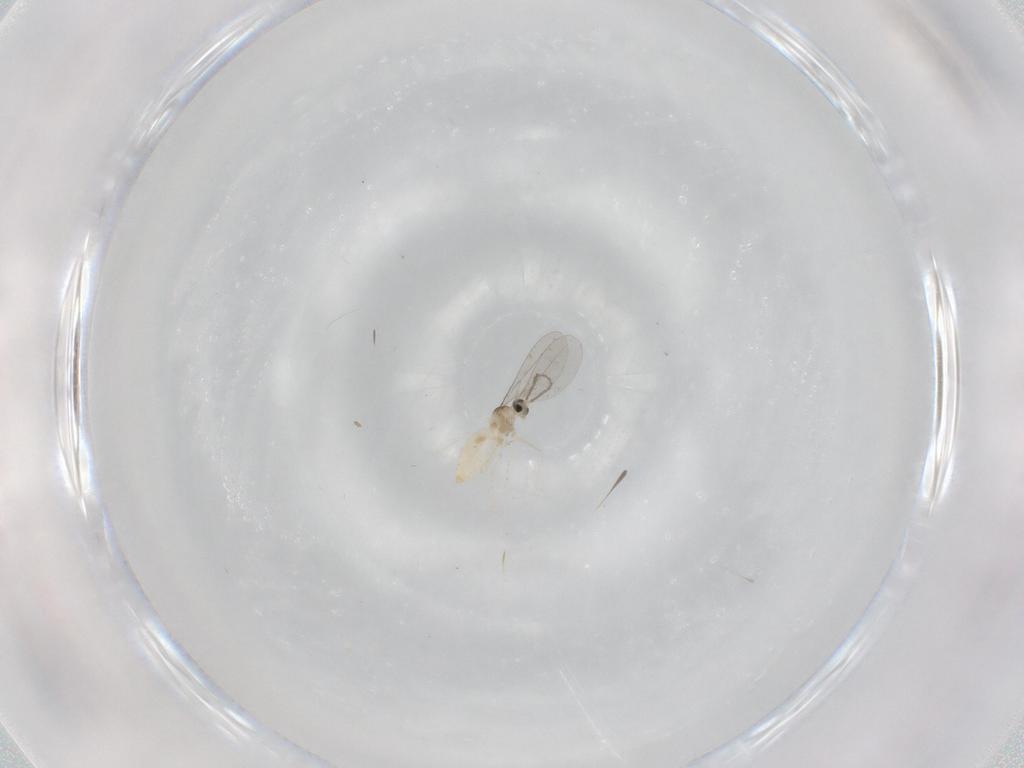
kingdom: Animalia
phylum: Arthropoda
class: Insecta
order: Diptera
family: Cecidomyiidae
